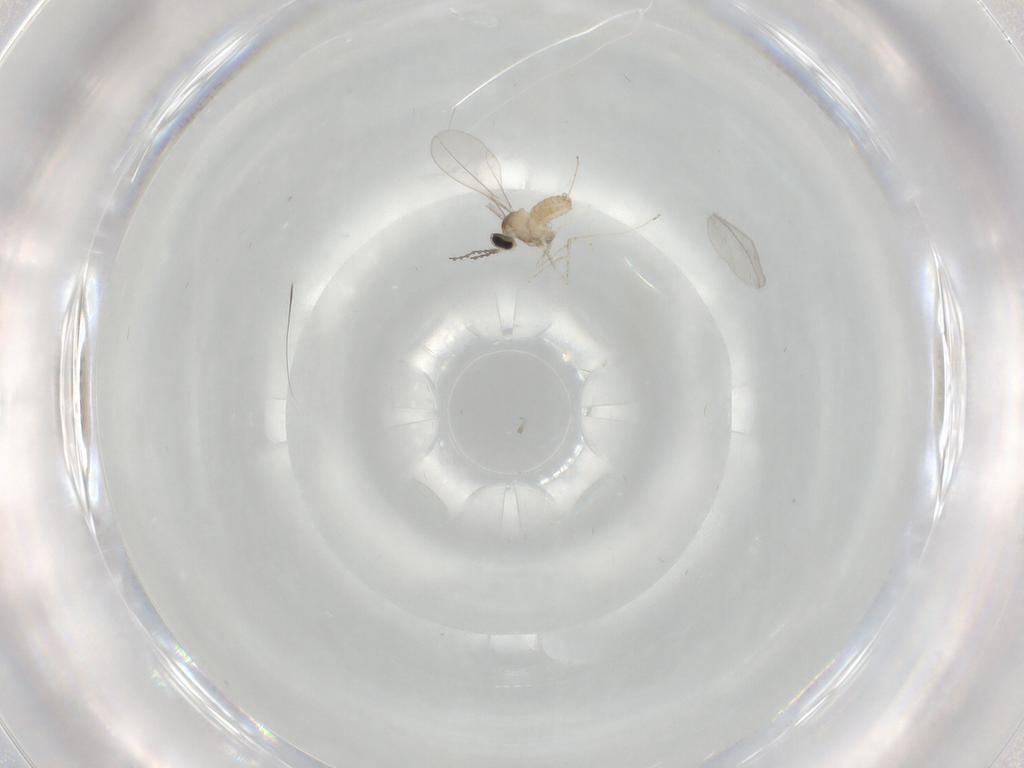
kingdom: Animalia
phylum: Arthropoda
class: Insecta
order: Diptera
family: Cecidomyiidae
